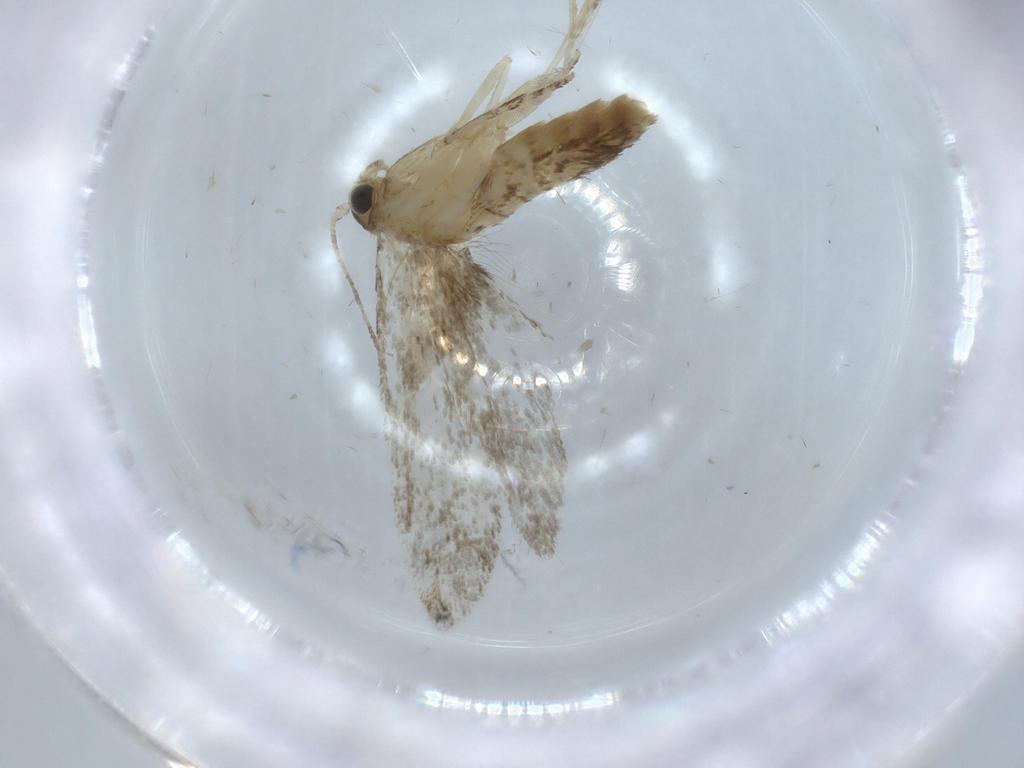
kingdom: Animalia
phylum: Arthropoda
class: Insecta
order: Lepidoptera
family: Tineidae
